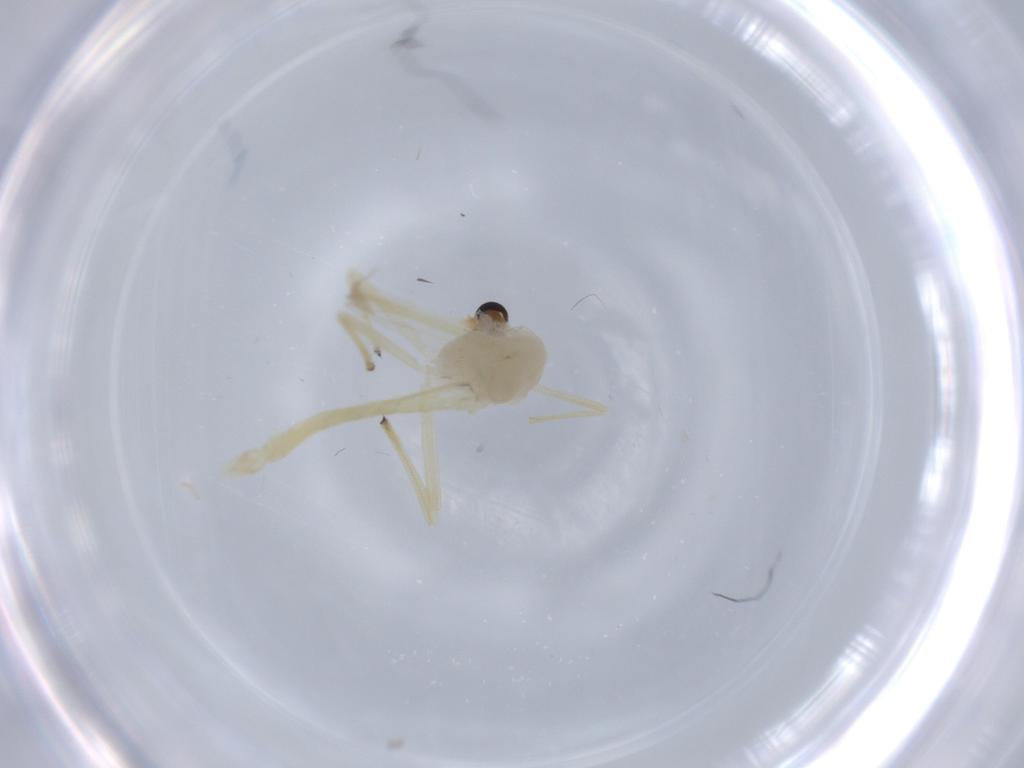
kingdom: Animalia
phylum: Arthropoda
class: Insecta
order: Diptera
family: Chironomidae
